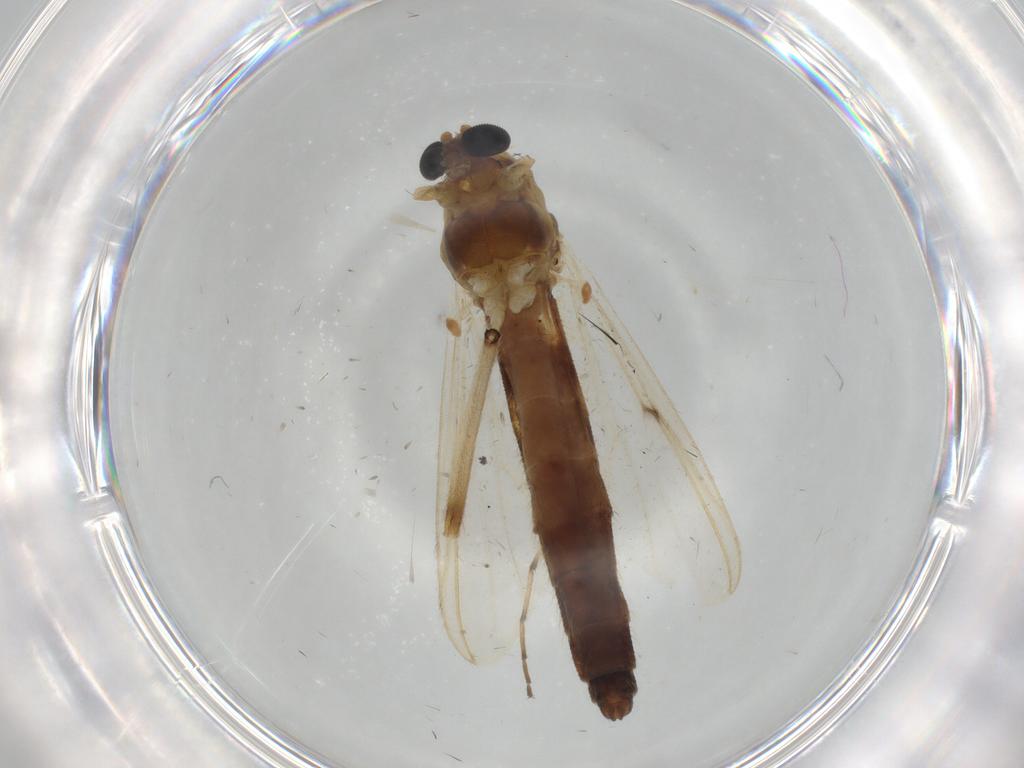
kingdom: Animalia
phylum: Arthropoda
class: Insecta
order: Diptera
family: Chironomidae
